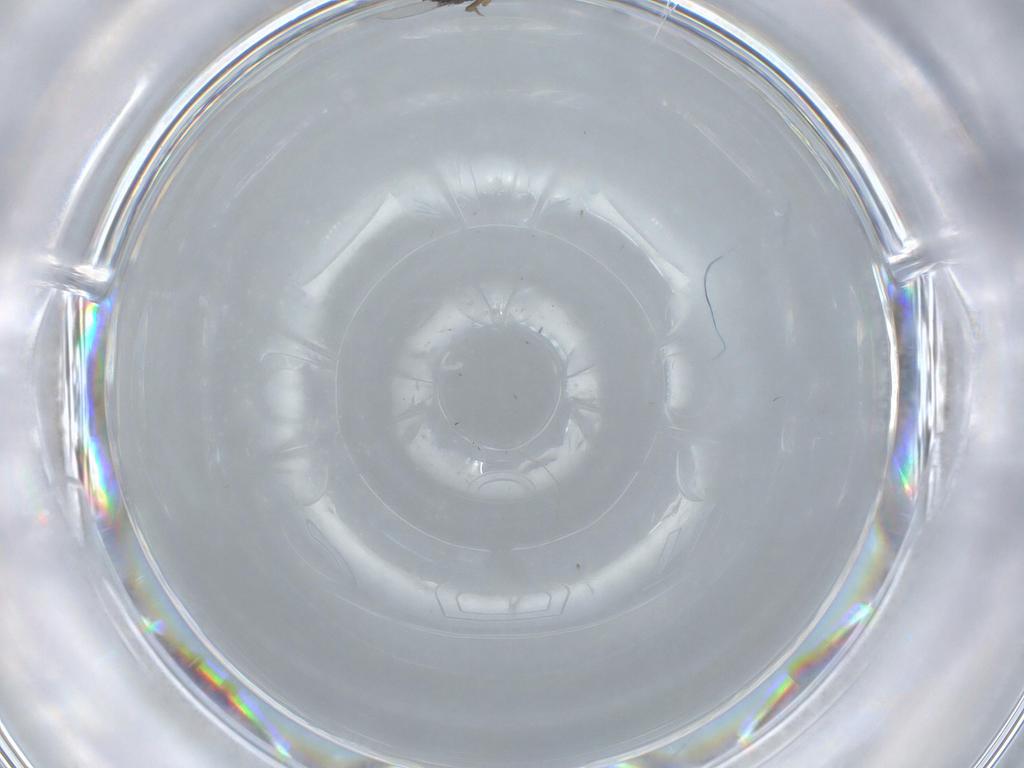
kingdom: Animalia
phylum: Arthropoda
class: Insecta
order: Diptera
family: Phoridae
